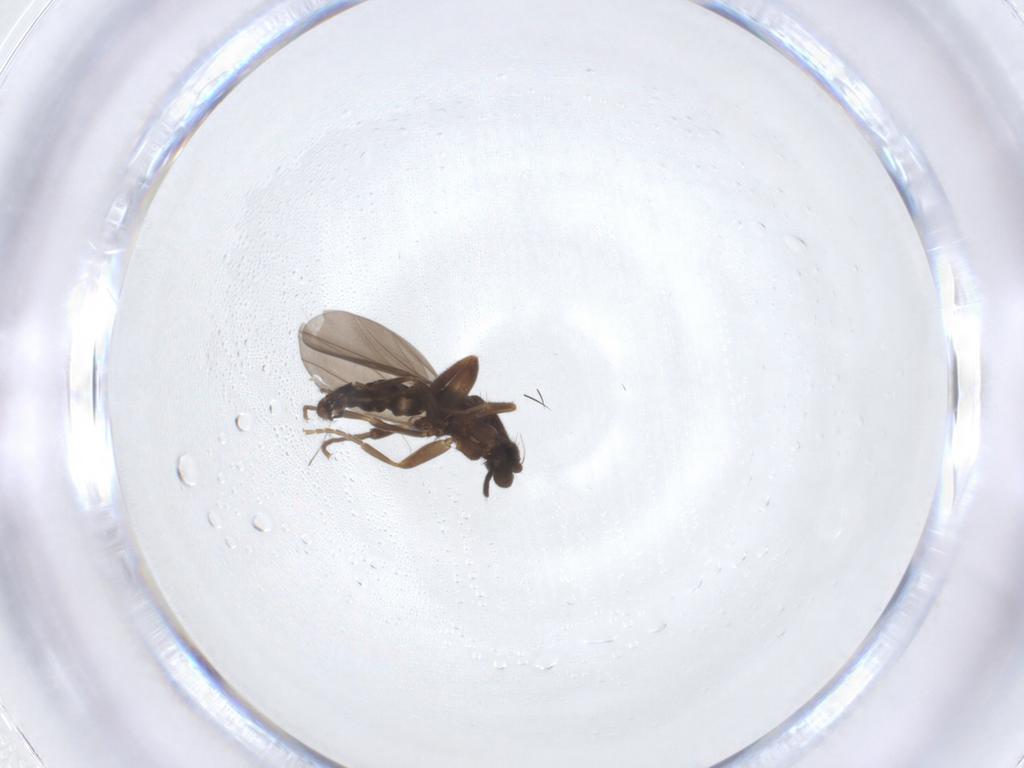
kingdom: Animalia
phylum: Arthropoda
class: Insecta
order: Diptera
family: Phoridae
